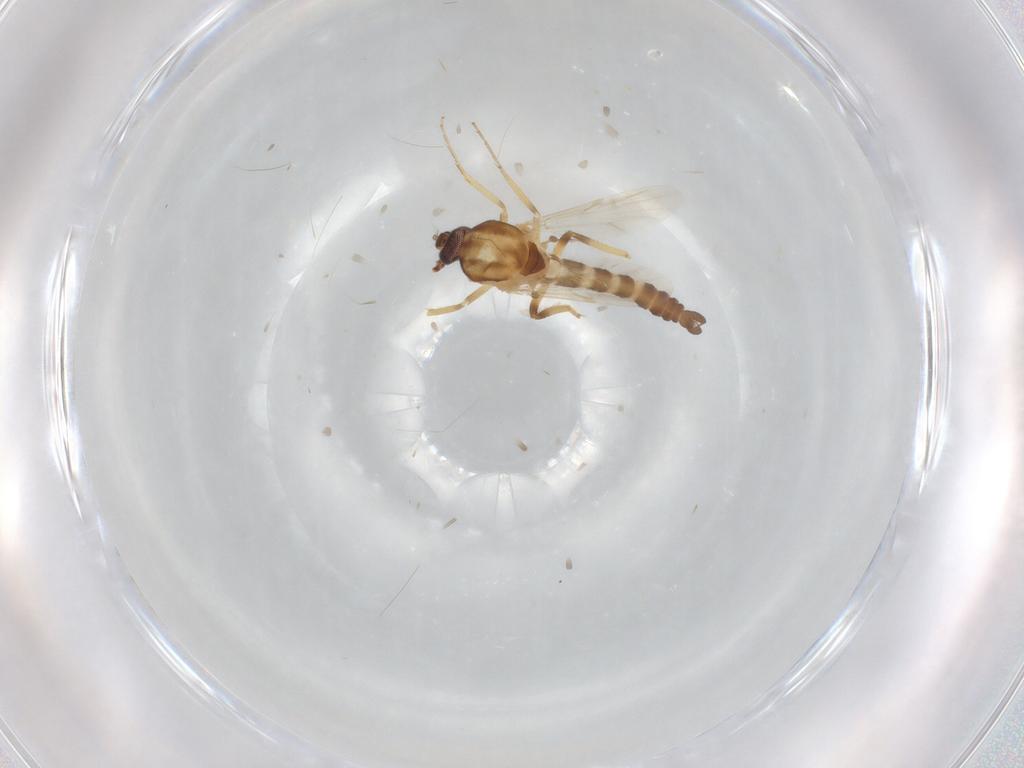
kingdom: Animalia
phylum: Arthropoda
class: Insecta
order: Diptera
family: Ceratopogonidae
